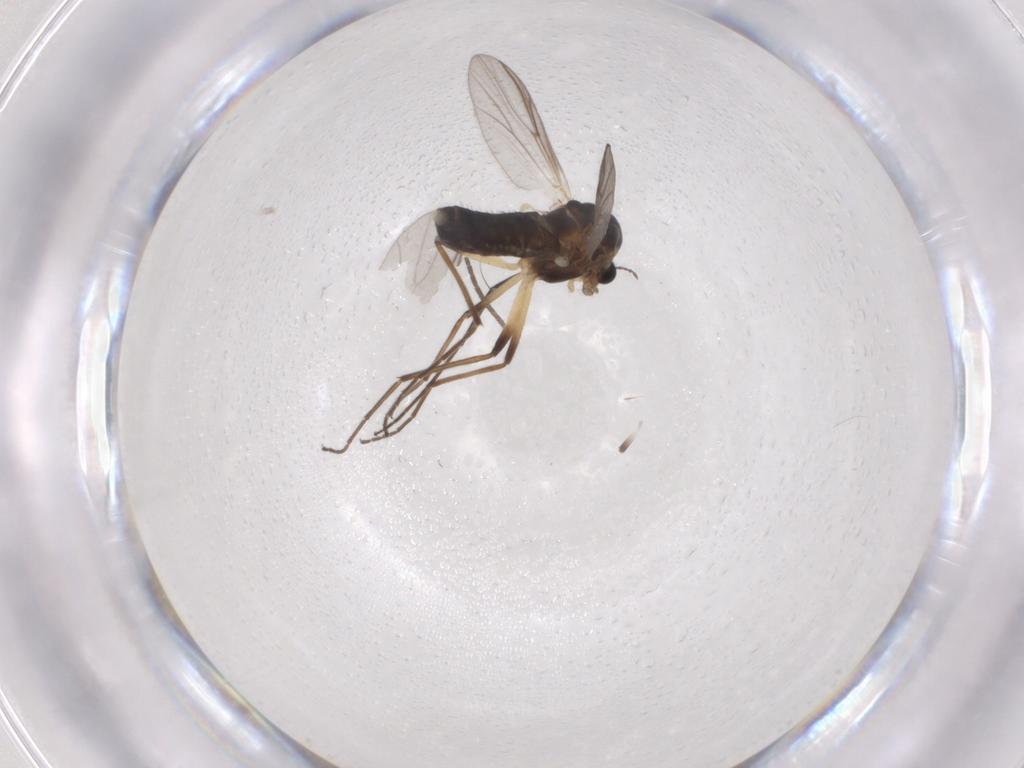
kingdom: Animalia
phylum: Arthropoda
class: Insecta
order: Diptera
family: Chironomidae
